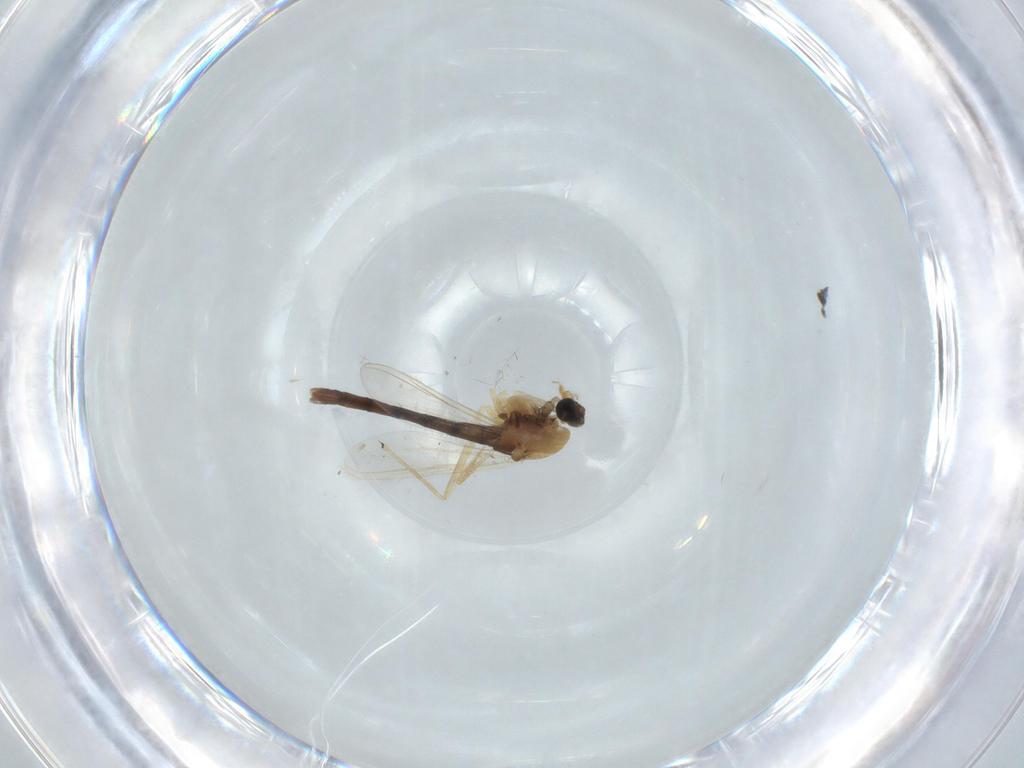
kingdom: Animalia
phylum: Arthropoda
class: Insecta
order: Diptera
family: Chironomidae
